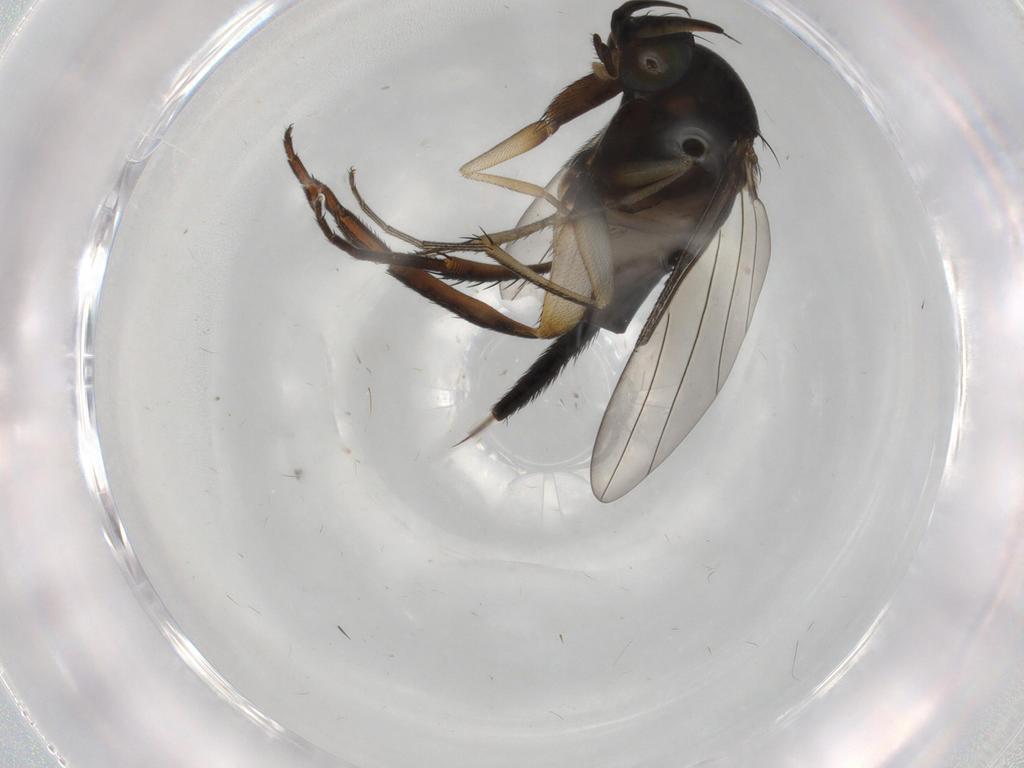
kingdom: Animalia
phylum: Arthropoda
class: Insecta
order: Diptera
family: Phoridae
